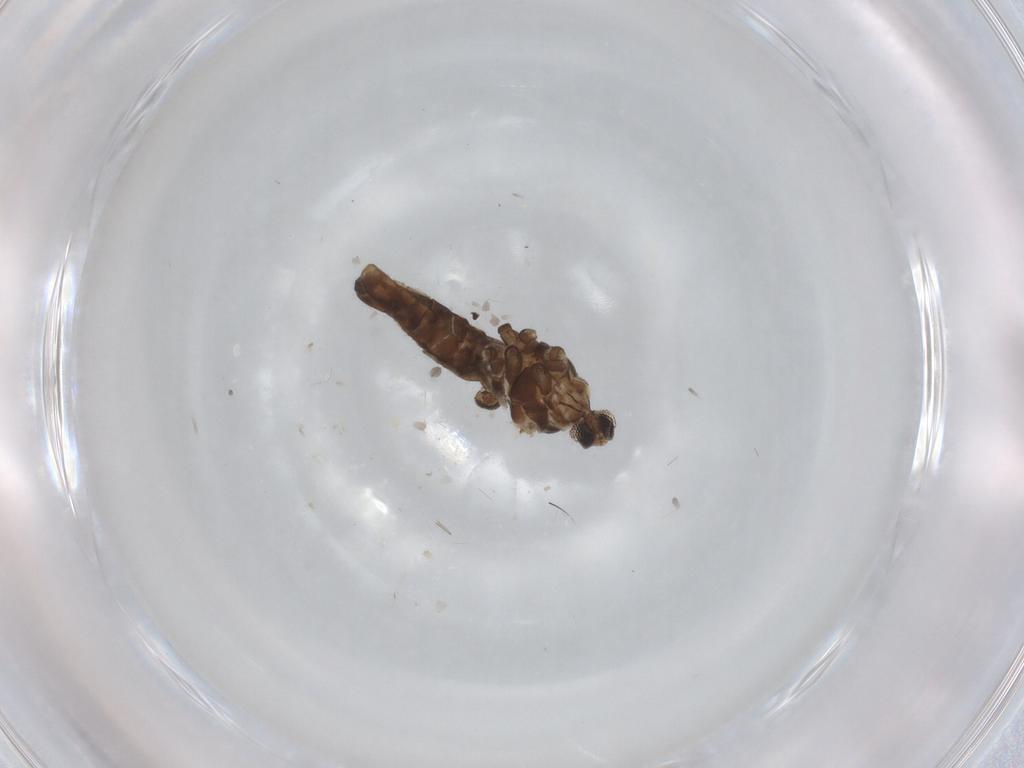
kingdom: Animalia
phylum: Arthropoda
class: Insecta
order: Diptera
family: Cecidomyiidae
